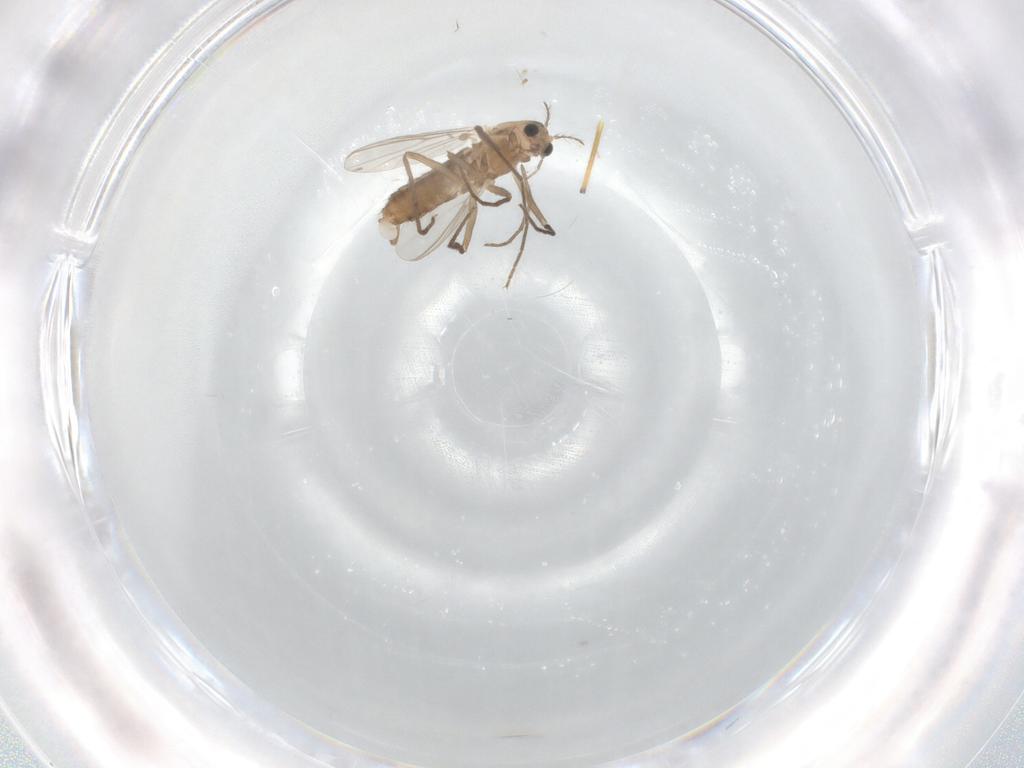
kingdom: Animalia
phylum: Arthropoda
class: Insecta
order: Diptera
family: Chironomidae
